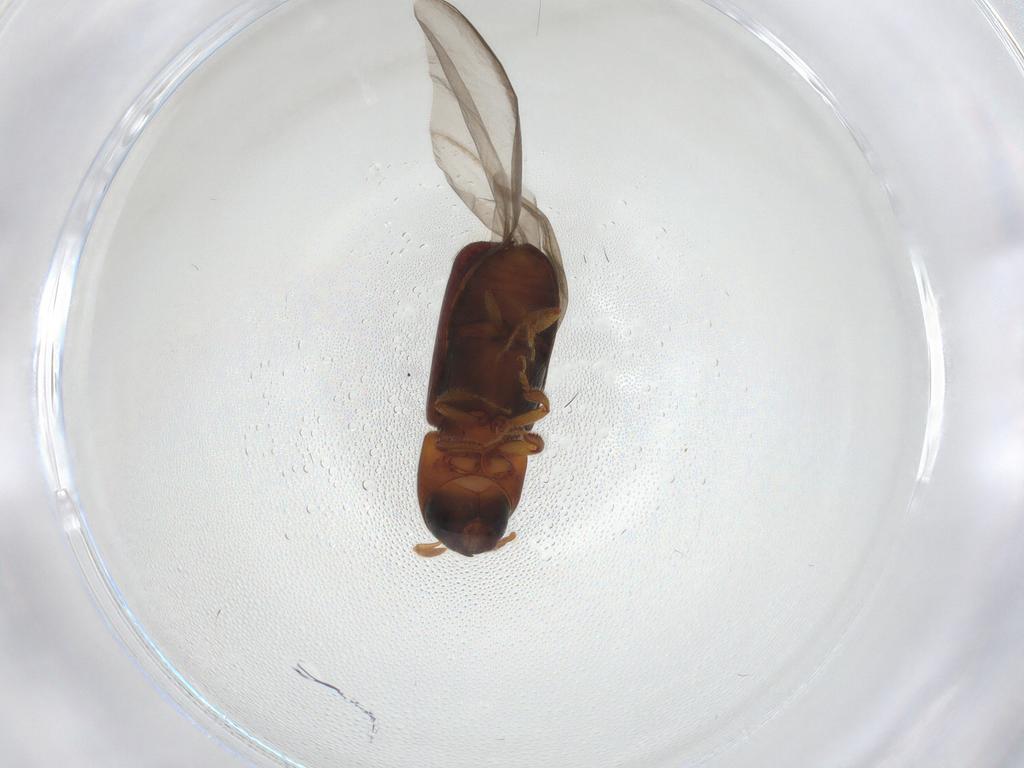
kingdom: Animalia
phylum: Arthropoda
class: Insecta
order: Coleoptera
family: Curculionidae
